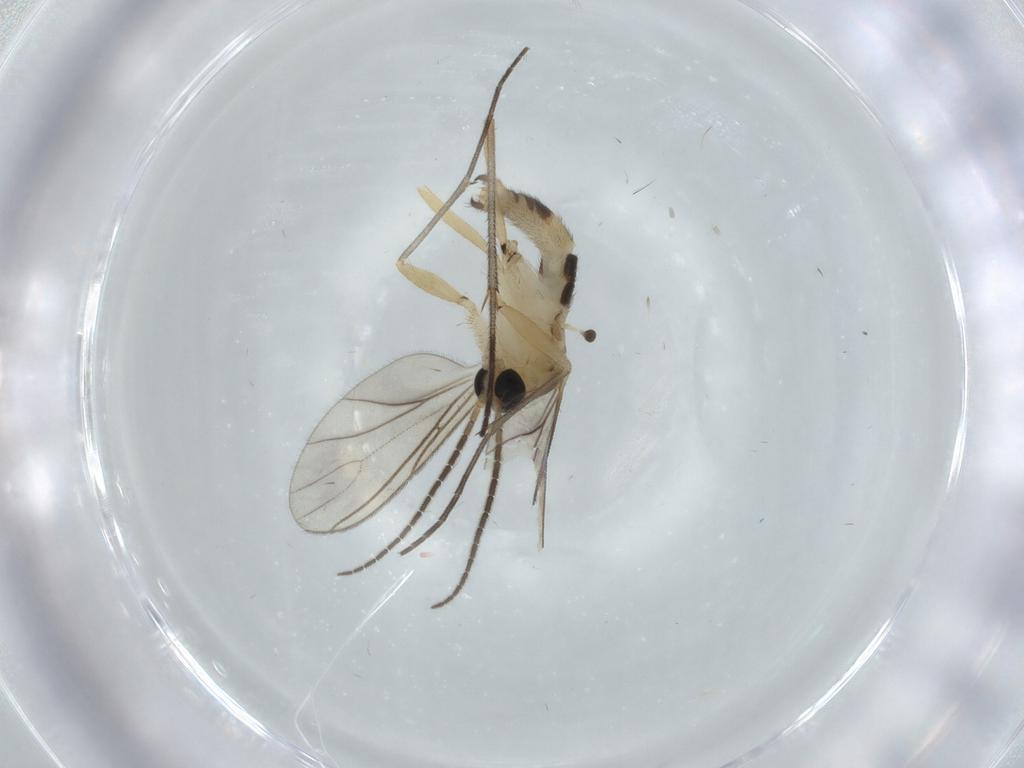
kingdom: Animalia
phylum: Arthropoda
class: Insecta
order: Diptera
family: Sciaridae
